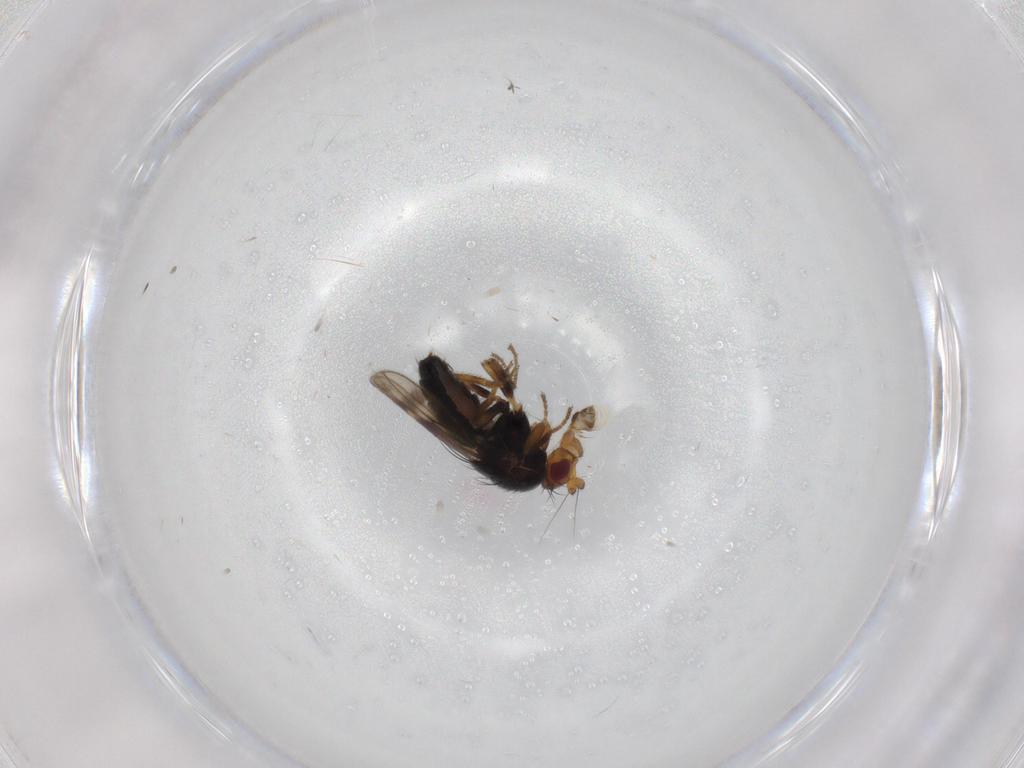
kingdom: Animalia
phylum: Arthropoda
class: Insecta
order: Diptera
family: Sphaeroceridae
